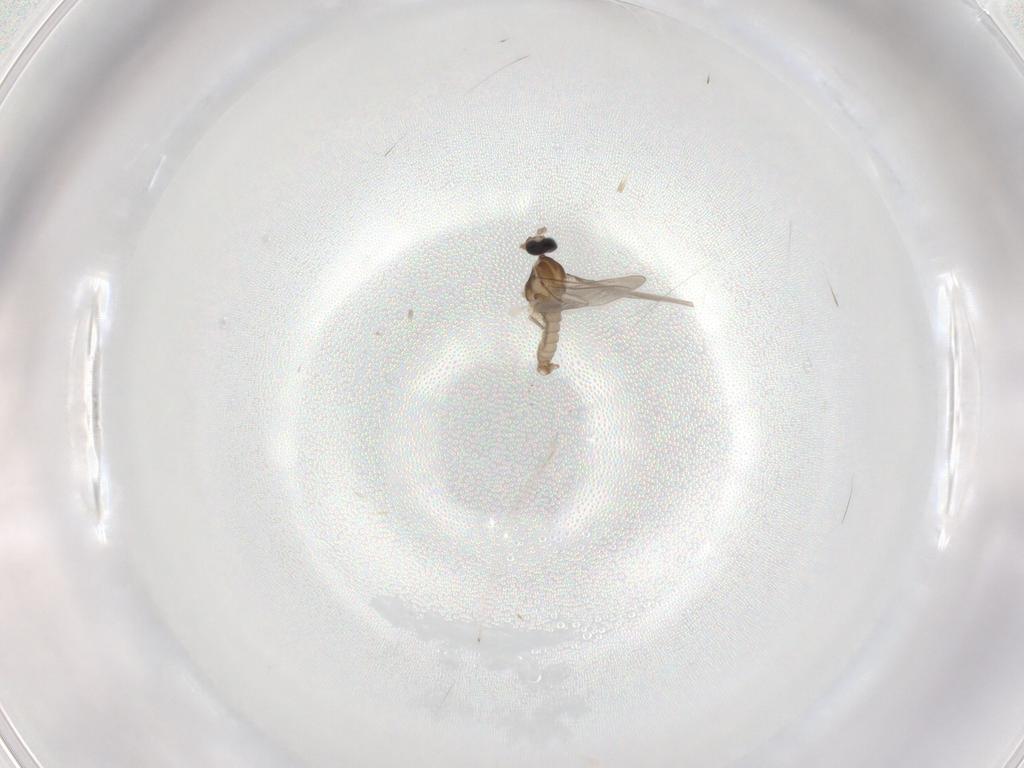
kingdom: Animalia
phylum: Arthropoda
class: Insecta
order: Diptera
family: Cecidomyiidae
